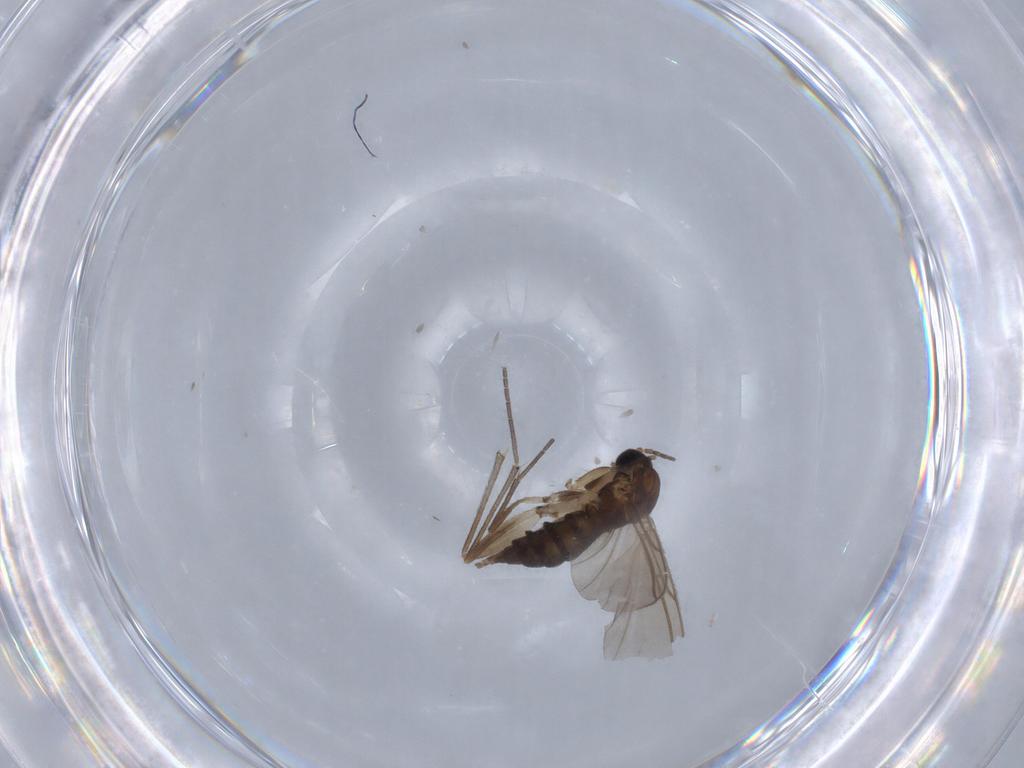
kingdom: Animalia
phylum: Arthropoda
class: Insecta
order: Diptera
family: Sciaridae
